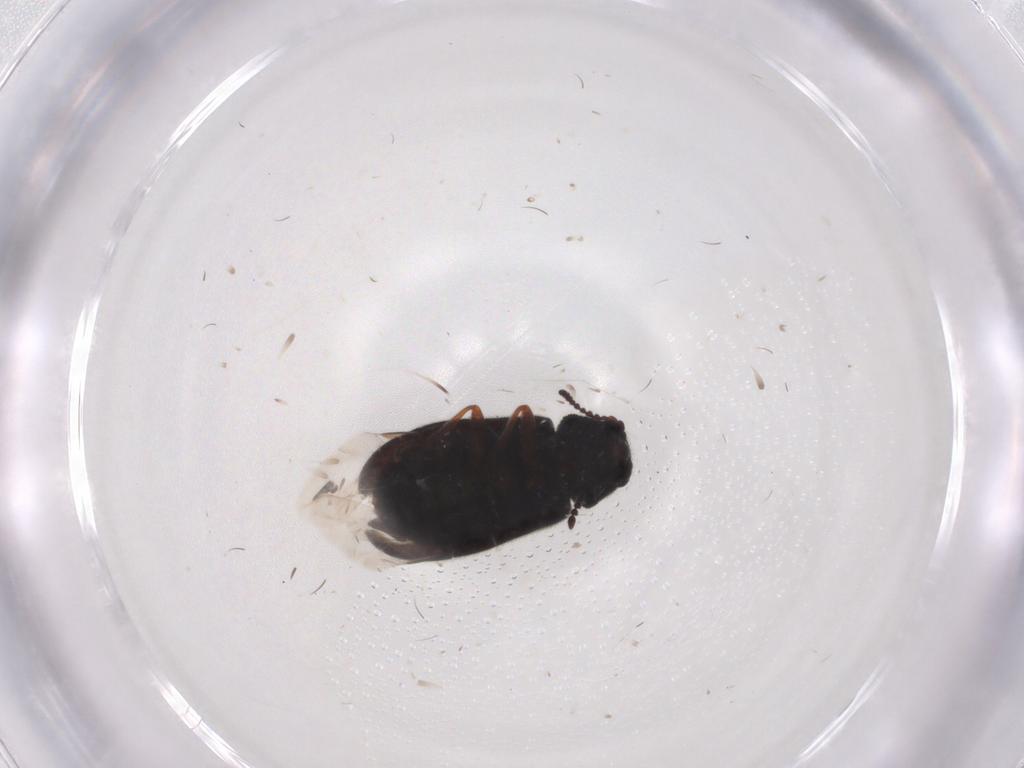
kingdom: Animalia
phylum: Arthropoda
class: Insecta
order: Coleoptera
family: Melyridae
